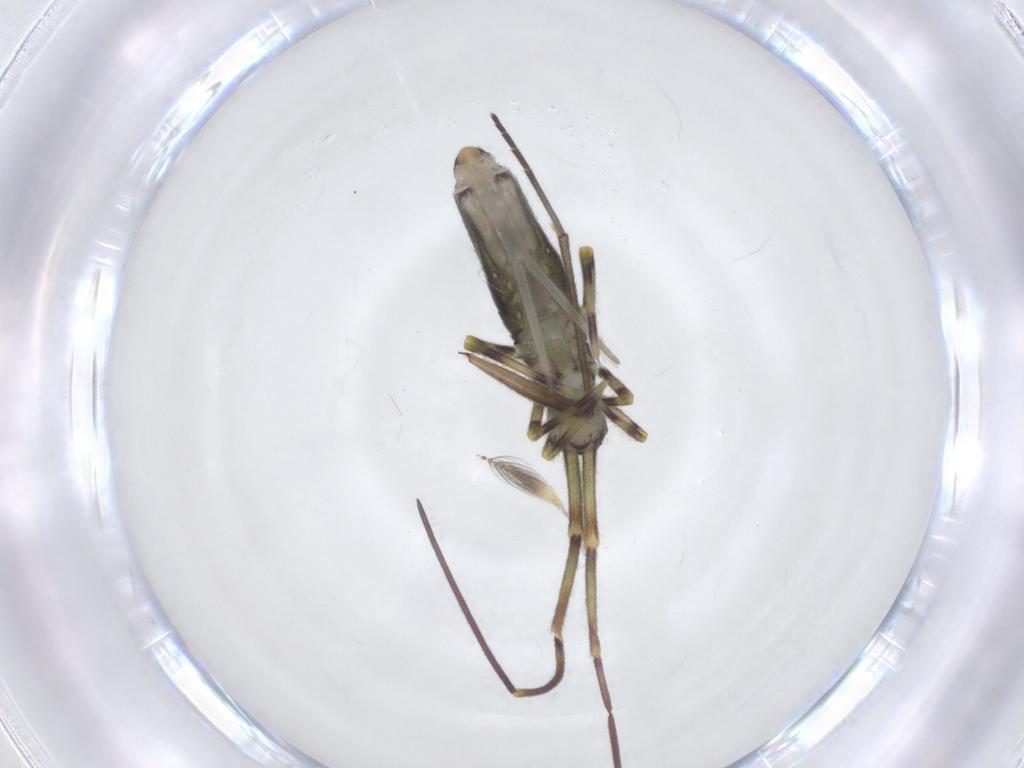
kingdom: Animalia
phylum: Arthropoda
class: Collembola
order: Entomobryomorpha
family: Entomobryidae
